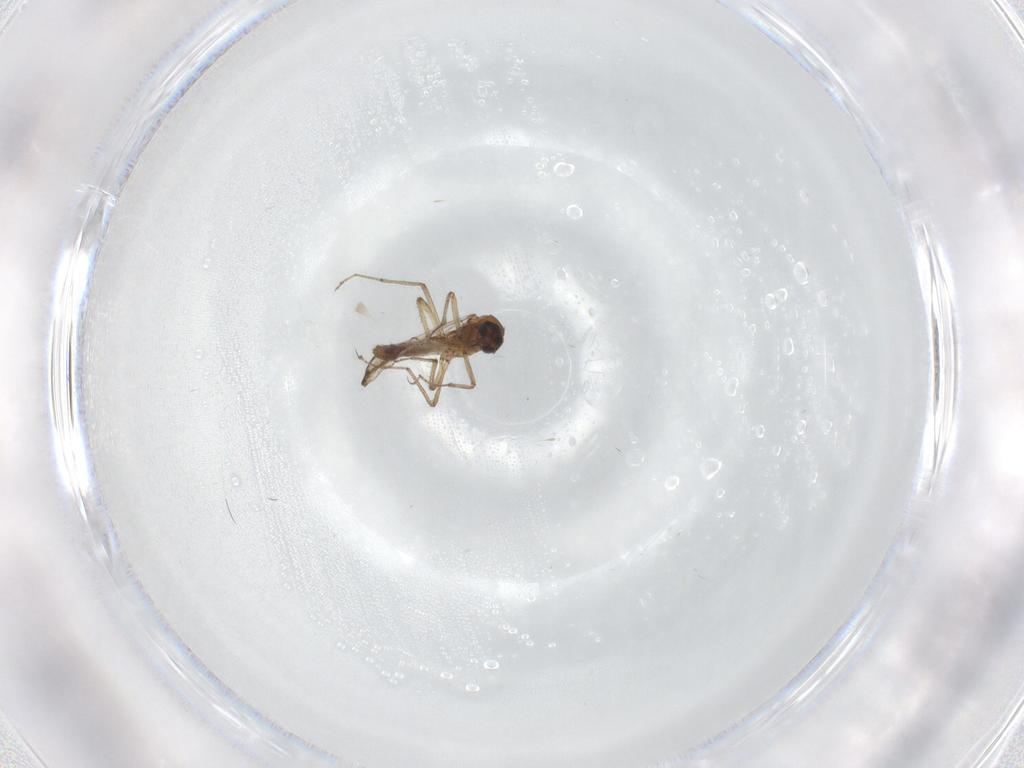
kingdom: Animalia
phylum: Arthropoda
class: Insecta
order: Diptera
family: Ceratopogonidae
